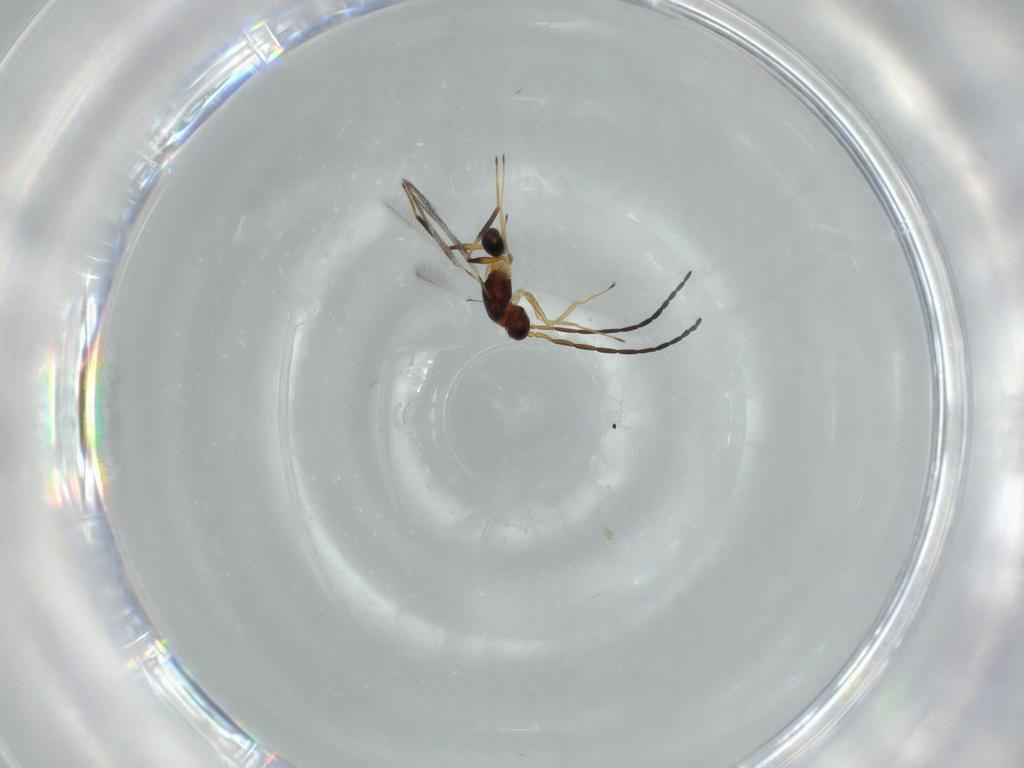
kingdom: Animalia
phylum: Arthropoda
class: Insecta
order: Hymenoptera
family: Mymaridae
